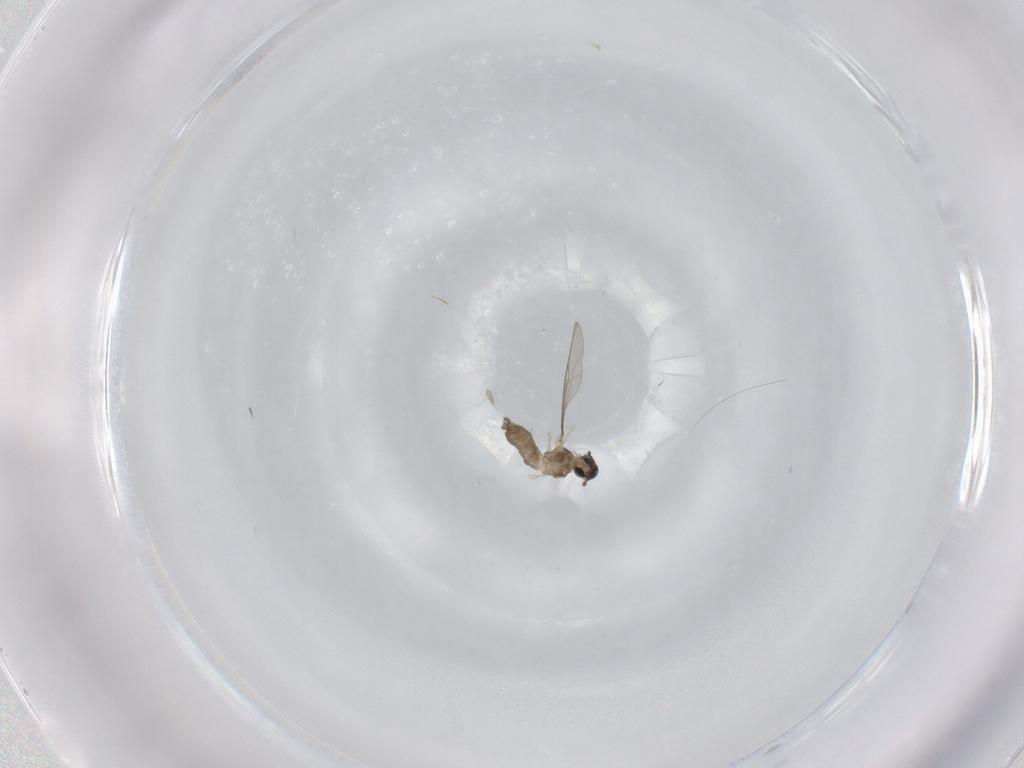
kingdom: Animalia
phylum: Arthropoda
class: Insecta
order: Diptera
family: Cecidomyiidae
